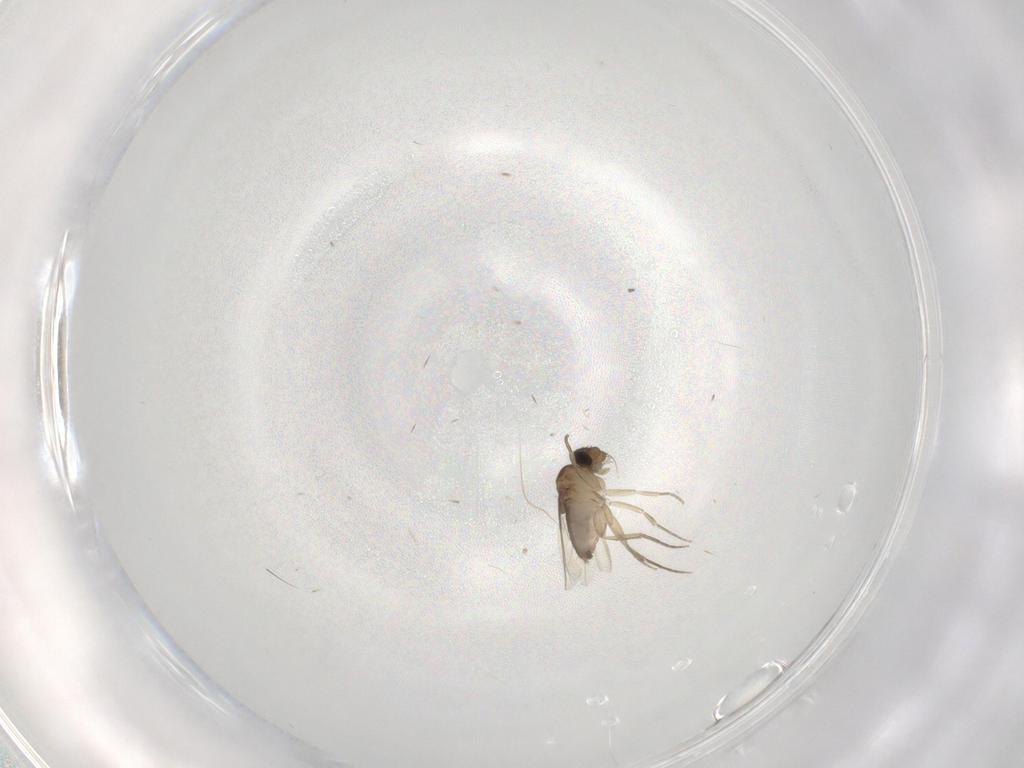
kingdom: Animalia
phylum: Arthropoda
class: Insecta
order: Diptera
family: Phoridae
